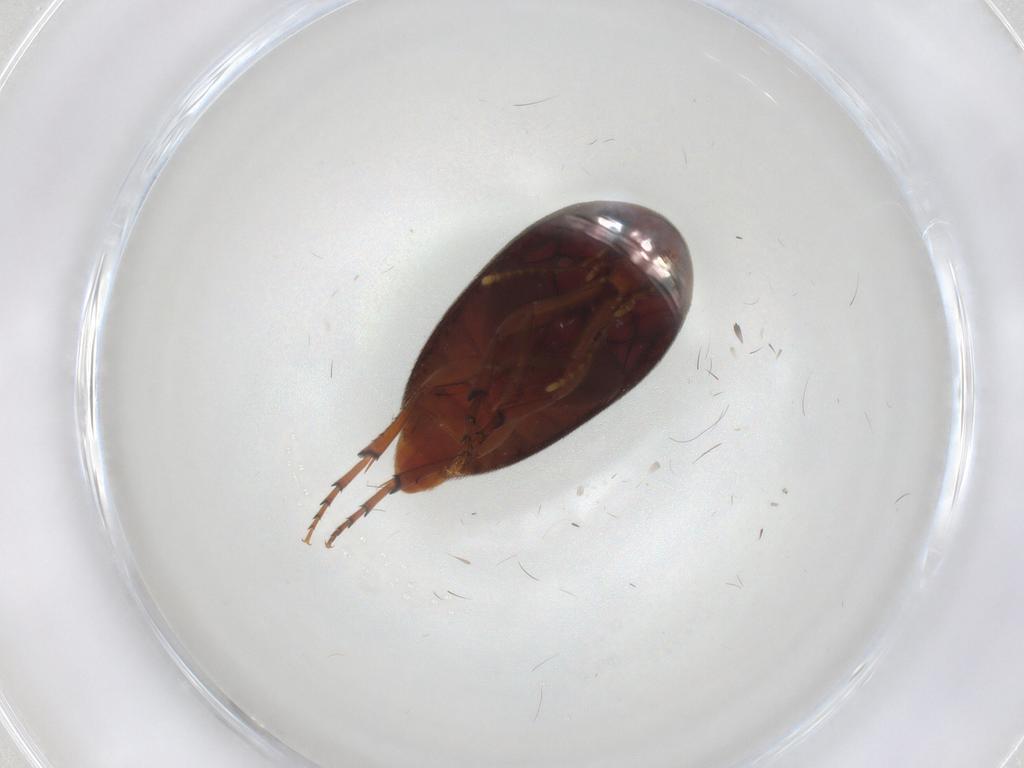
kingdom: Animalia
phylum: Arthropoda
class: Insecta
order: Coleoptera
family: Eucinetidae
